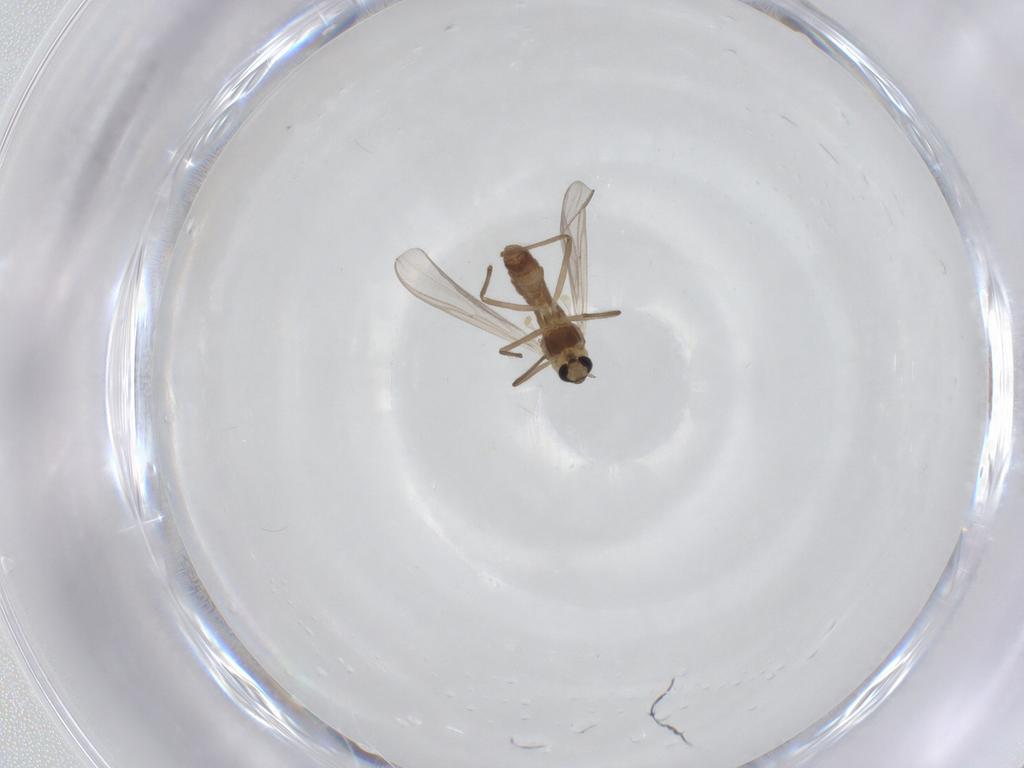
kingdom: Animalia
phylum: Arthropoda
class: Insecta
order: Diptera
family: Chironomidae
